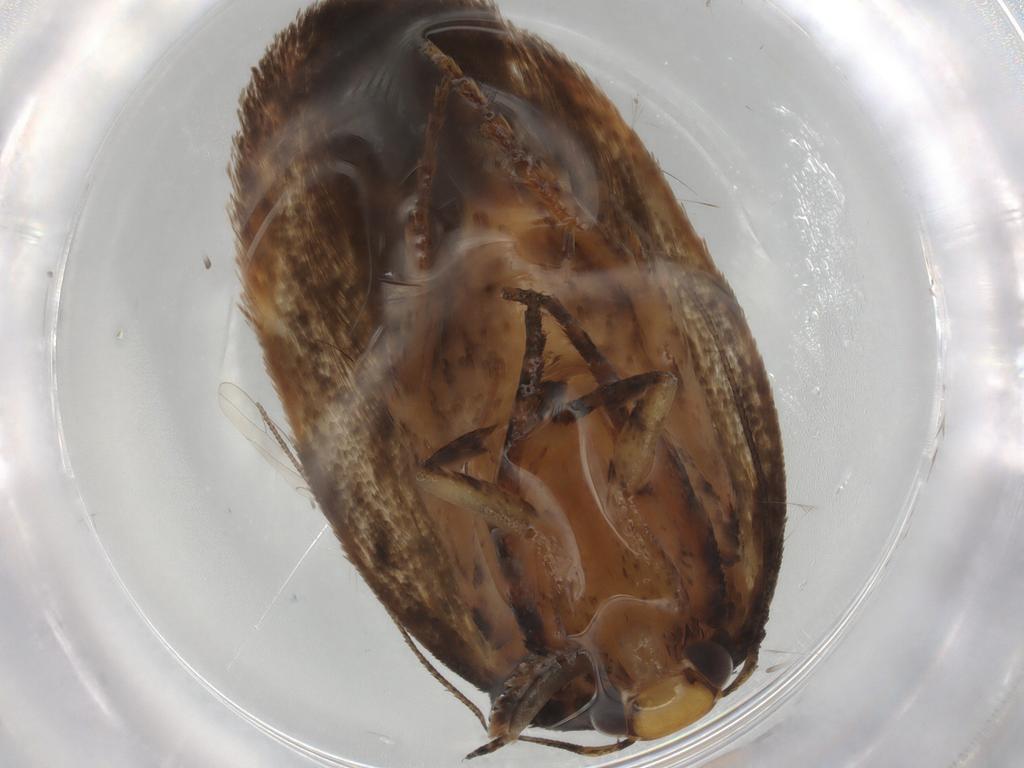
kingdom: Animalia
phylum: Arthropoda
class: Insecta
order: Lepidoptera
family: Gelechiidae
